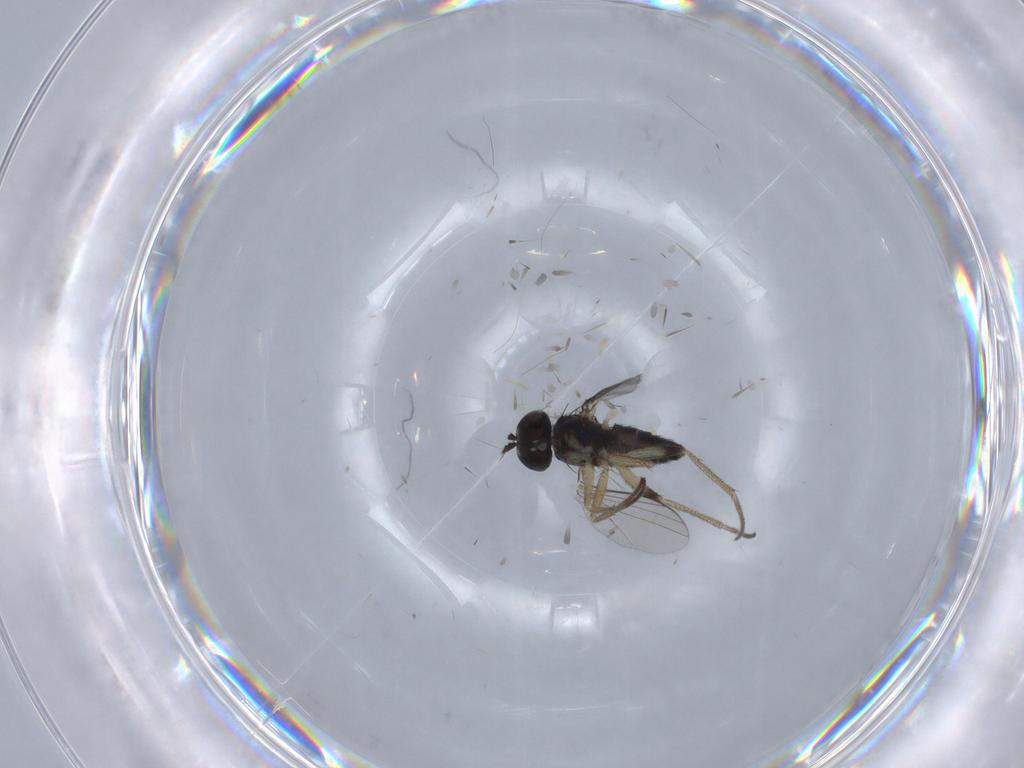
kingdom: Animalia
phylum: Arthropoda
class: Insecta
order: Diptera
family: Dolichopodidae
